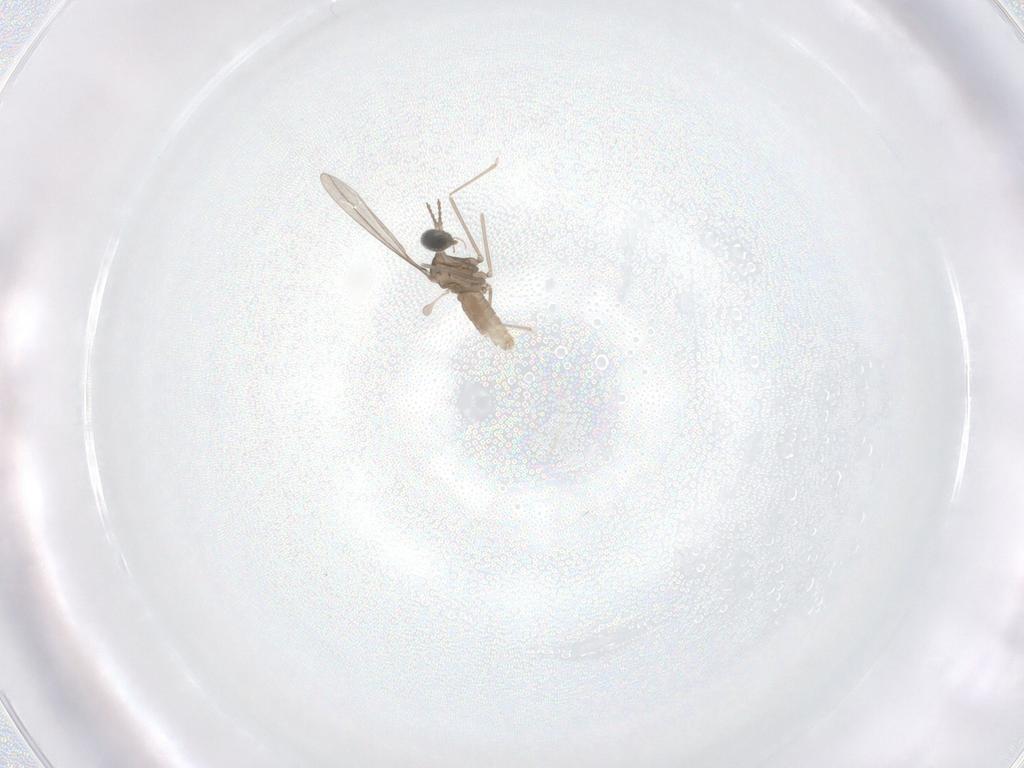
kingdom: Animalia
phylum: Arthropoda
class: Insecta
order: Diptera
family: Cecidomyiidae
